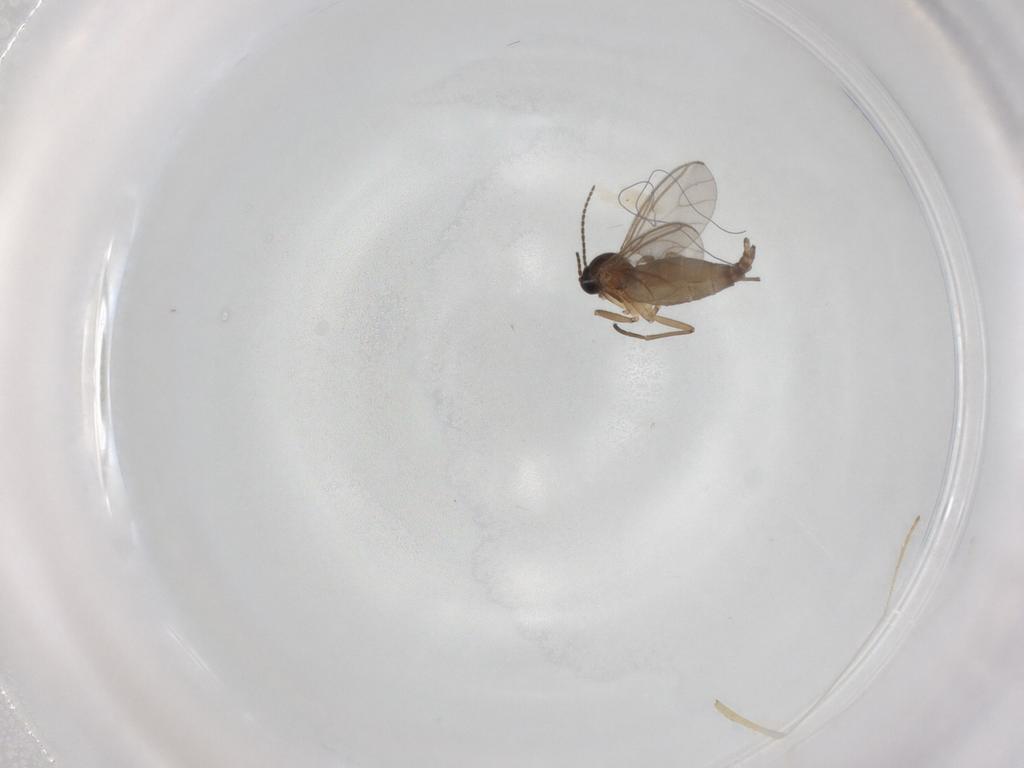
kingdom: Animalia
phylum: Arthropoda
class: Insecta
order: Diptera
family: Sciaridae
